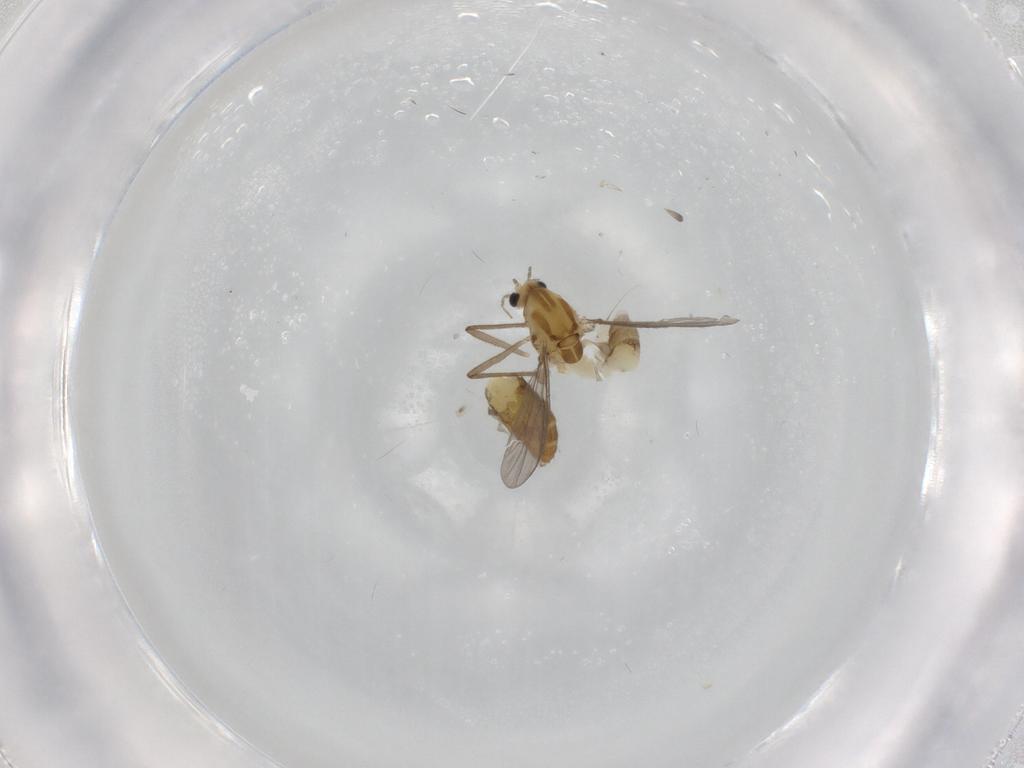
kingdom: Animalia
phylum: Arthropoda
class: Insecta
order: Diptera
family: Chironomidae
